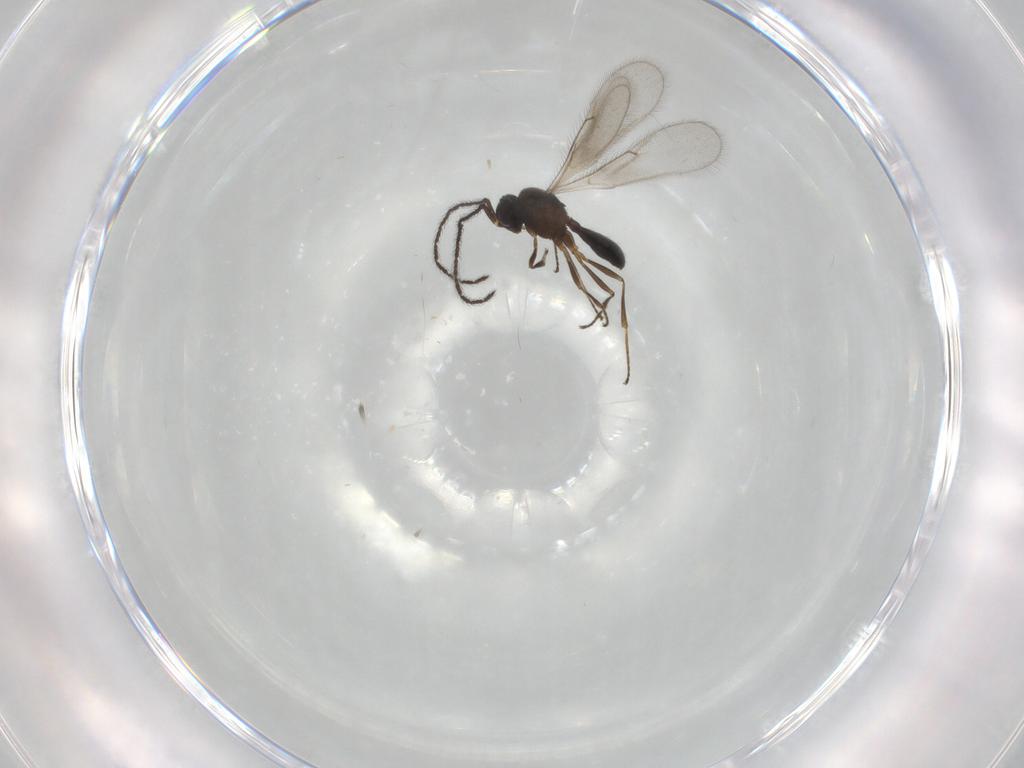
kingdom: Animalia
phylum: Arthropoda
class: Insecta
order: Hymenoptera
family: Scelionidae
